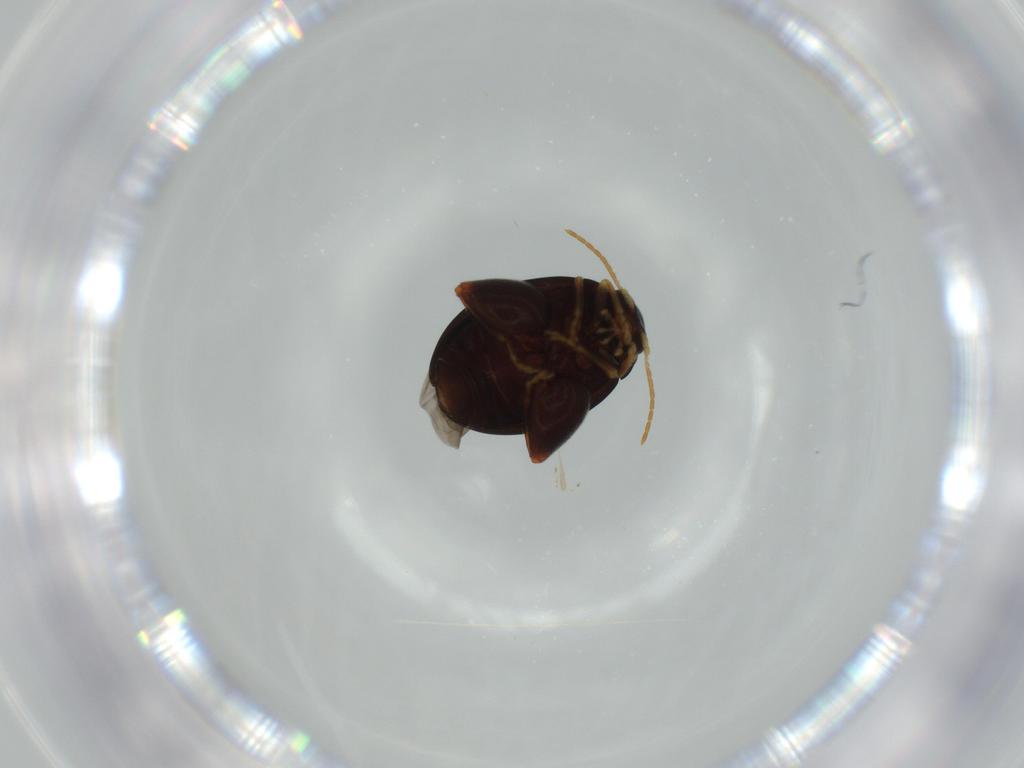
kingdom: Animalia
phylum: Arthropoda
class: Insecta
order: Coleoptera
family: Chrysomelidae
